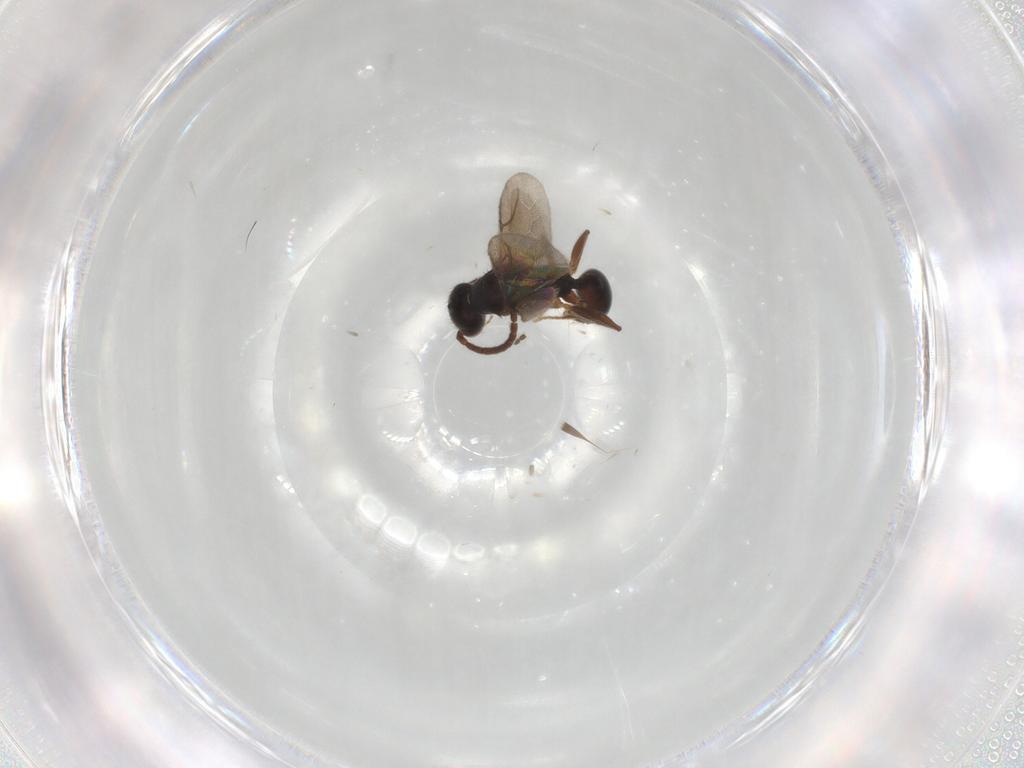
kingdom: Animalia
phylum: Arthropoda
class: Insecta
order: Hymenoptera
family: Bethylidae
